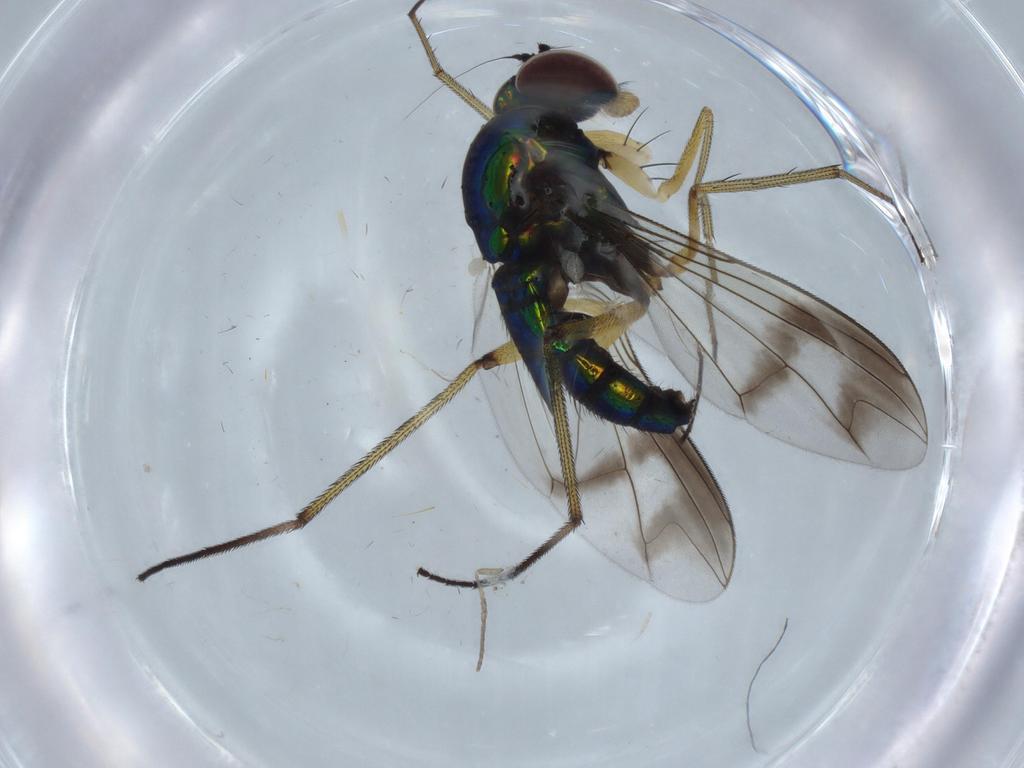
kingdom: Animalia
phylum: Arthropoda
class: Insecta
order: Diptera
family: Dolichopodidae
